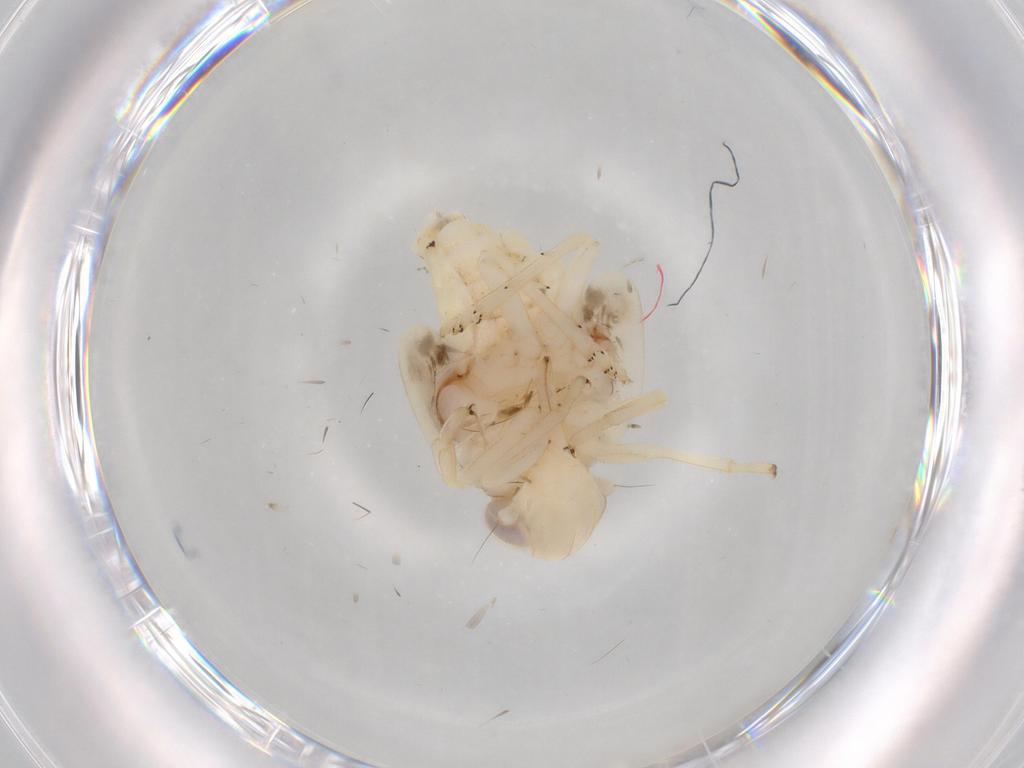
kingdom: Animalia
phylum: Arthropoda
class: Insecta
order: Hemiptera
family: Nogodinidae
